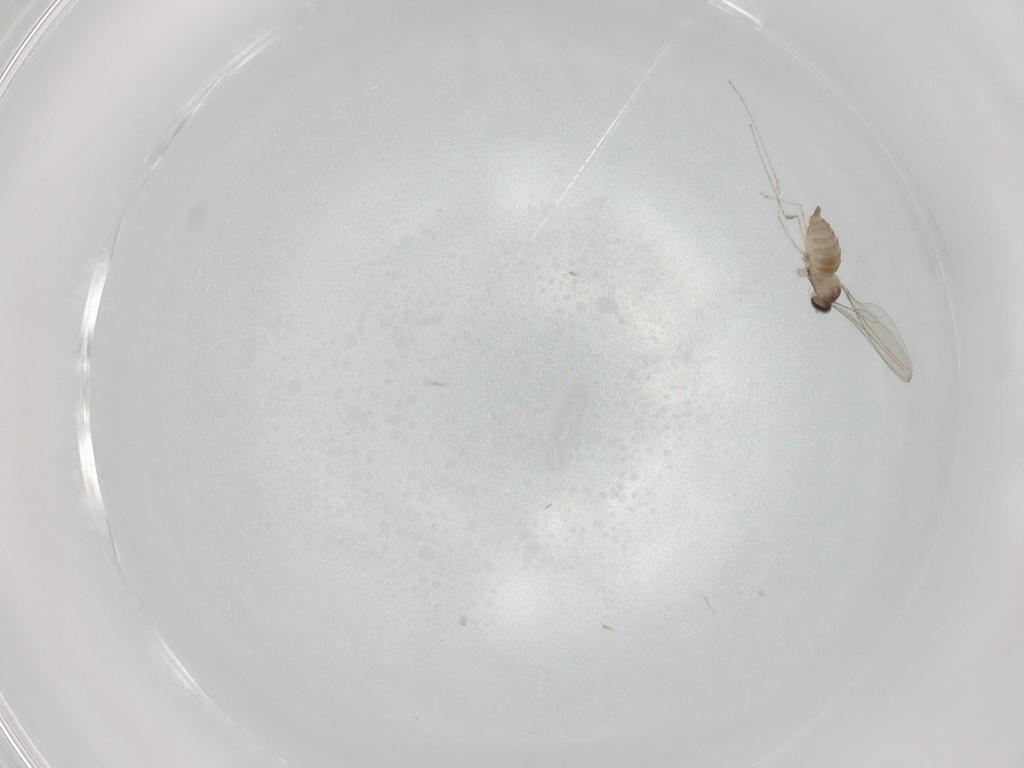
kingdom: Animalia
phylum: Arthropoda
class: Insecta
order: Diptera
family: Cecidomyiidae
